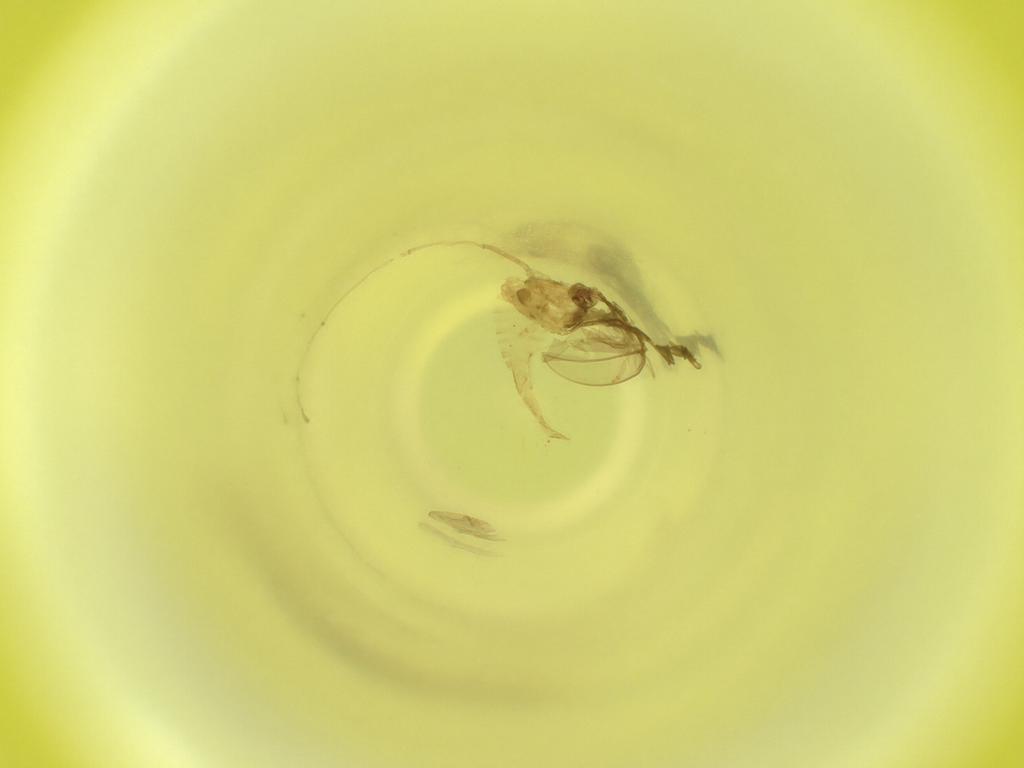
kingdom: Animalia
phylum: Arthropoda
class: Insecta
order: Diptera
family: Cecidomyiidae
